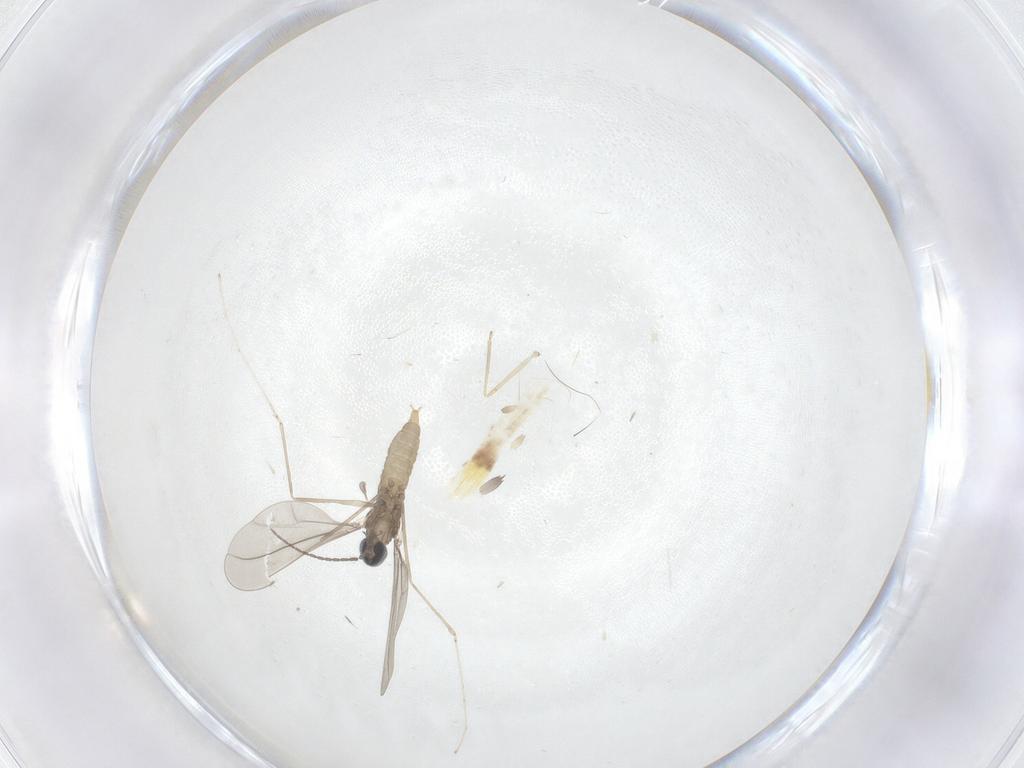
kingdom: Animalia
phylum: Arthropoda
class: Insecta
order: Diptera
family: Cecidomyiidae
